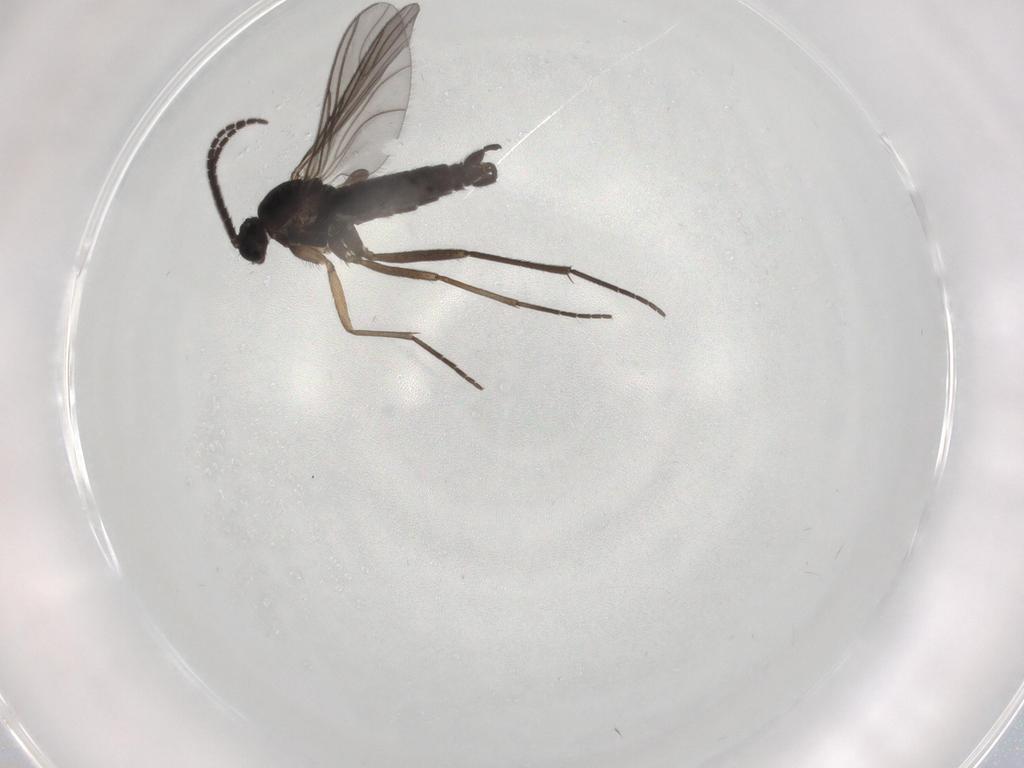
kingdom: Animalia
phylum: Arthropoda
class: Insecta
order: Diptera
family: Sciaridae
